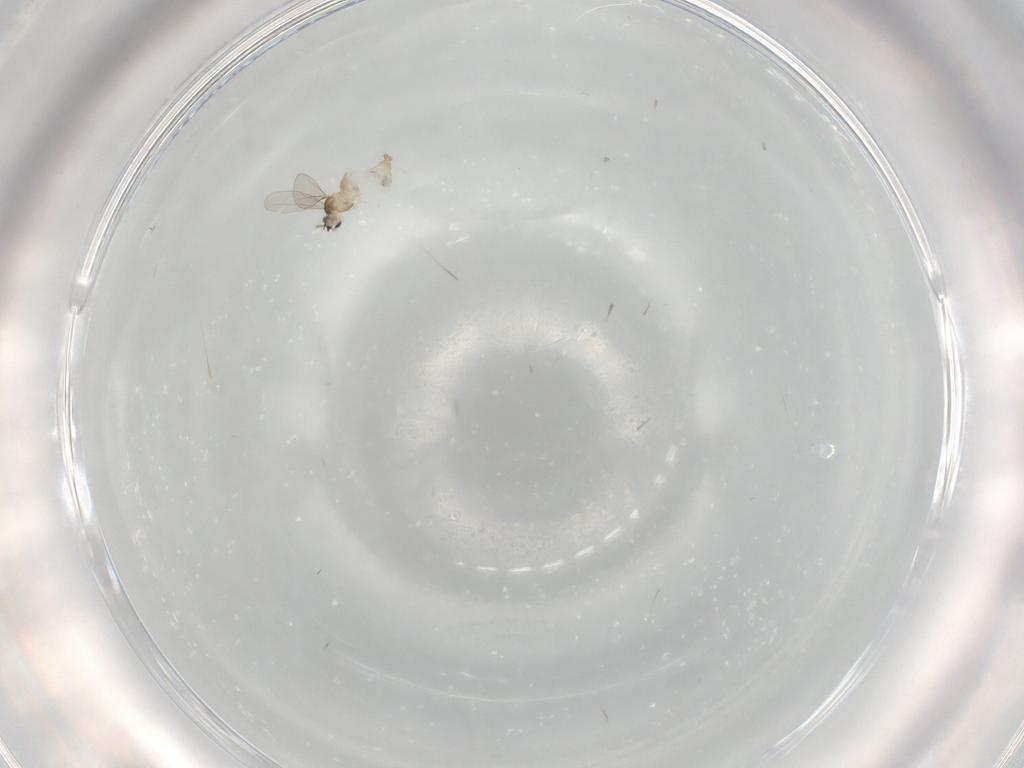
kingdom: Animalia
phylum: Arthropoda
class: Insecta
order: Diptera
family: Cecidomyiidae
